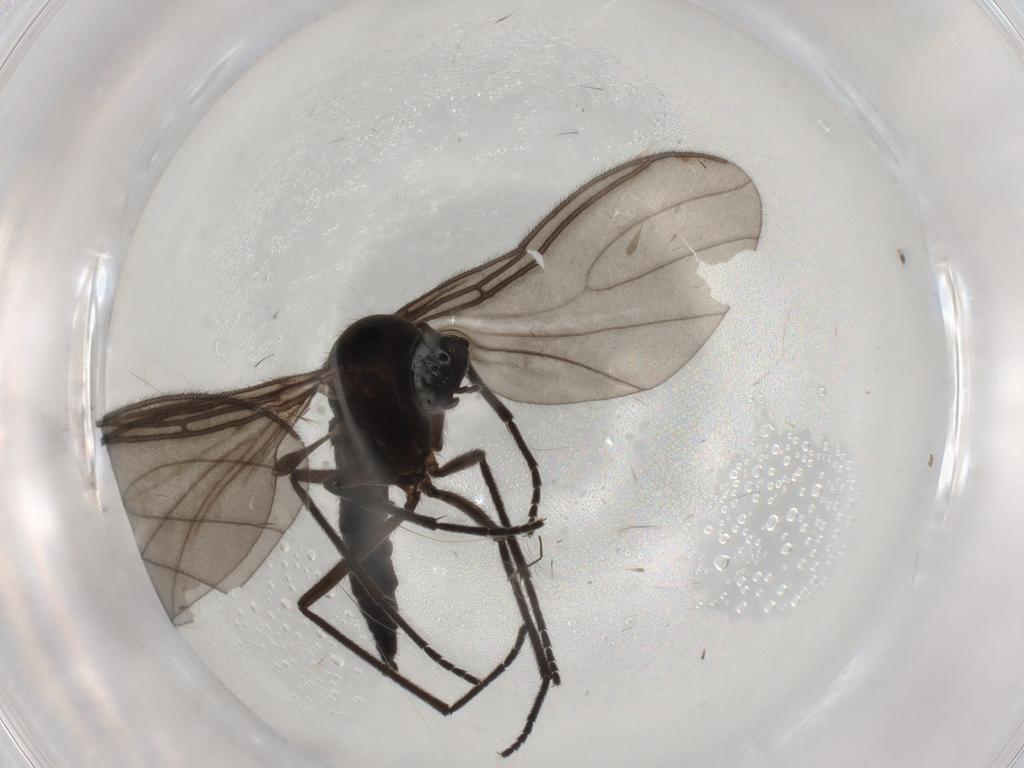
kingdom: Animalia
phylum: Arthropoda
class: Insecta
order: Diptera
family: Sciaridae
